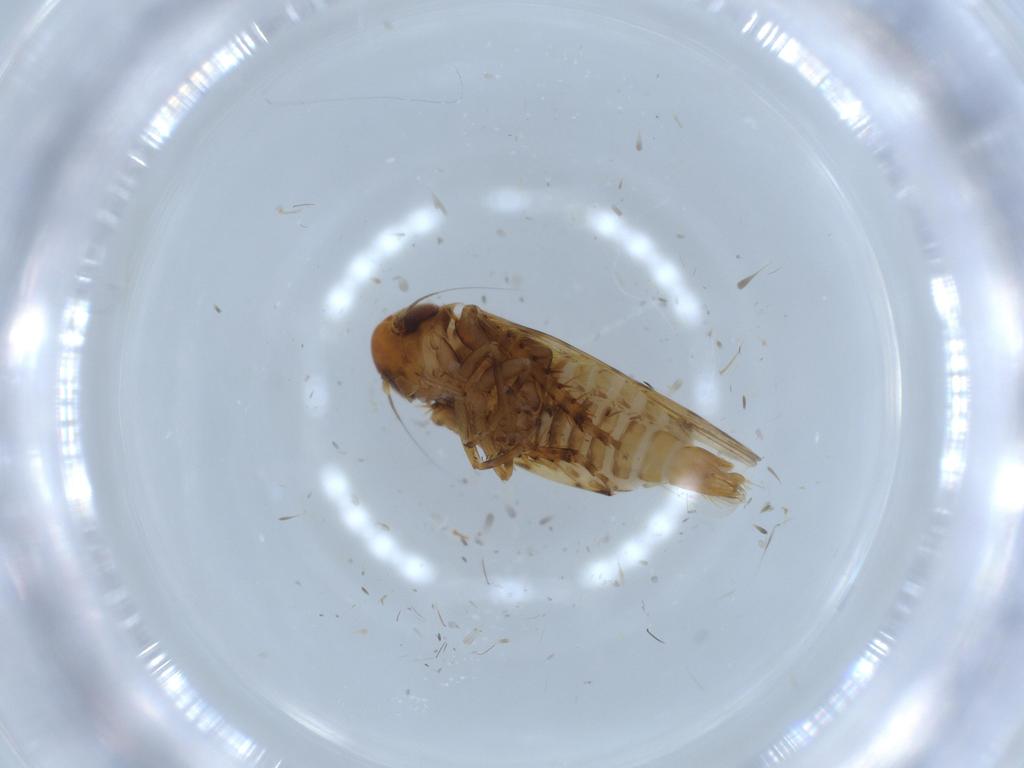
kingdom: Animalia
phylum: Arthropoda
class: Insecta
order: Hemiptera
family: Cicadellidae
